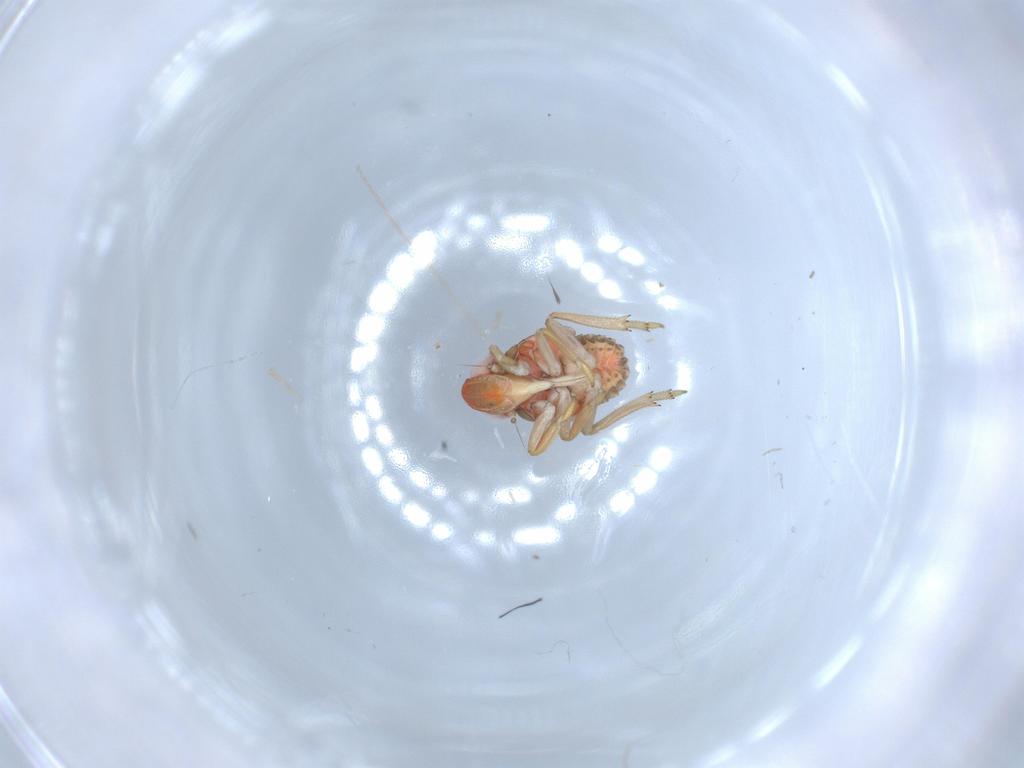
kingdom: Animalia
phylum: Arthropoda
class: Insecta
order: Hemiptera
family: Fulgoroidea_incertae_sedis
